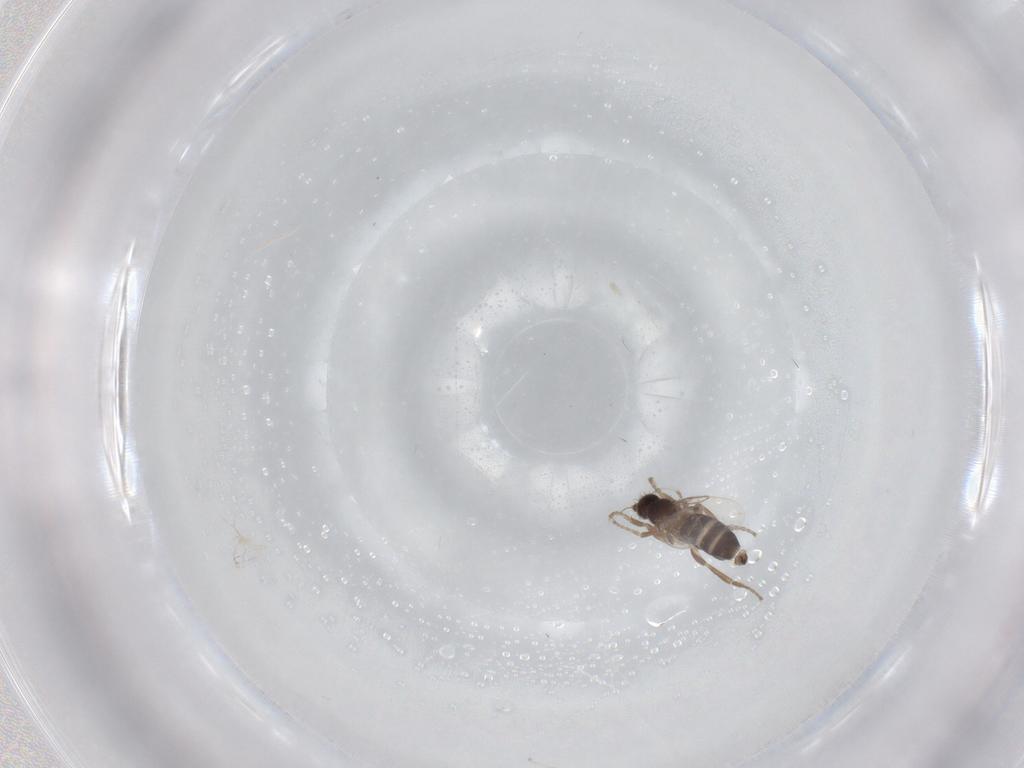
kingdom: Animalia
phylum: Arthropoda
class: Insecta
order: Diptera
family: Phoridae
